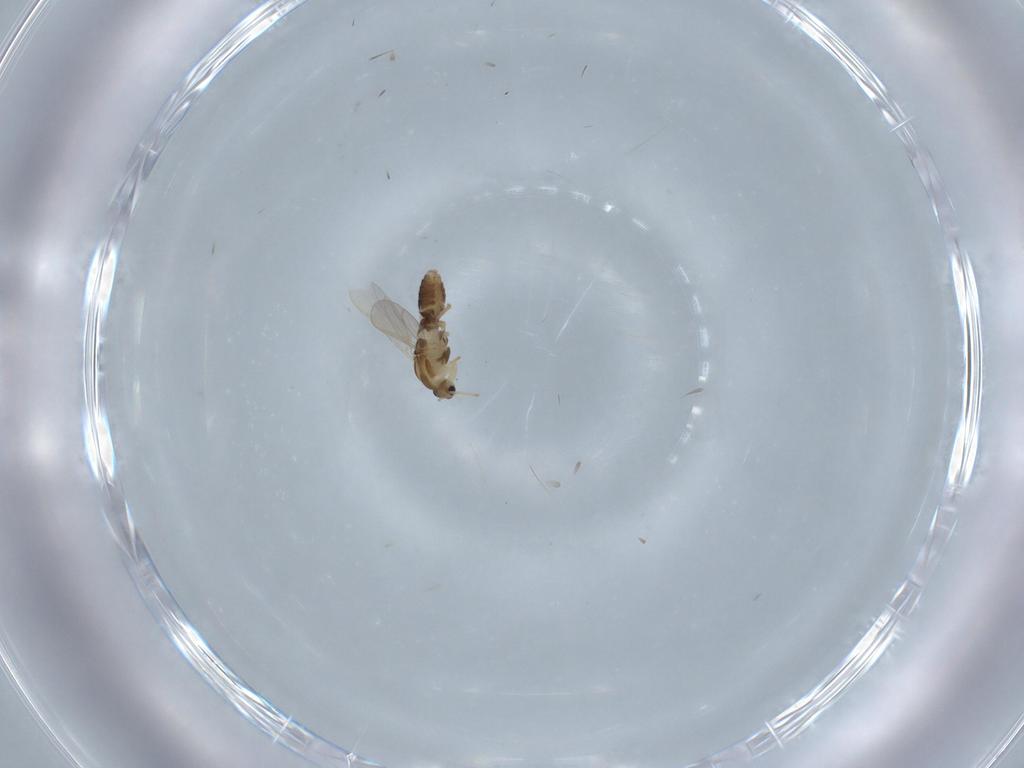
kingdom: Animalia
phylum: Arthropoda
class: Insecta
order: Diptera
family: Chironomidae
